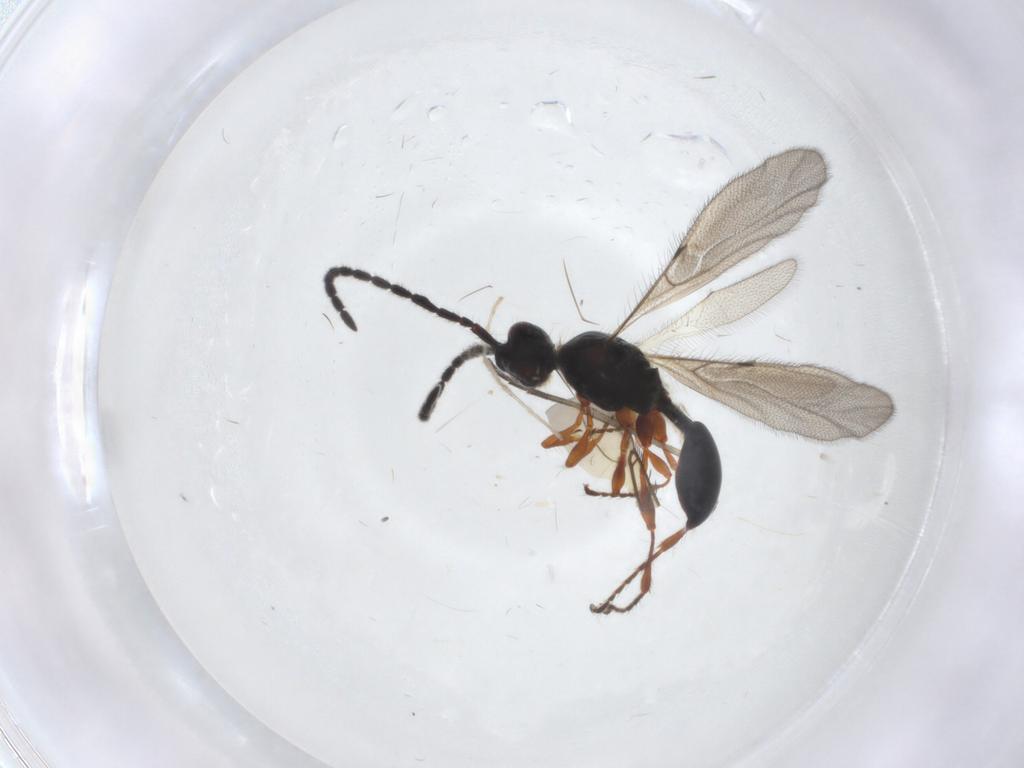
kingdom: Animalia
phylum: Arthropoda
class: Insecta
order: Hymenoptera
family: Diapriidae
